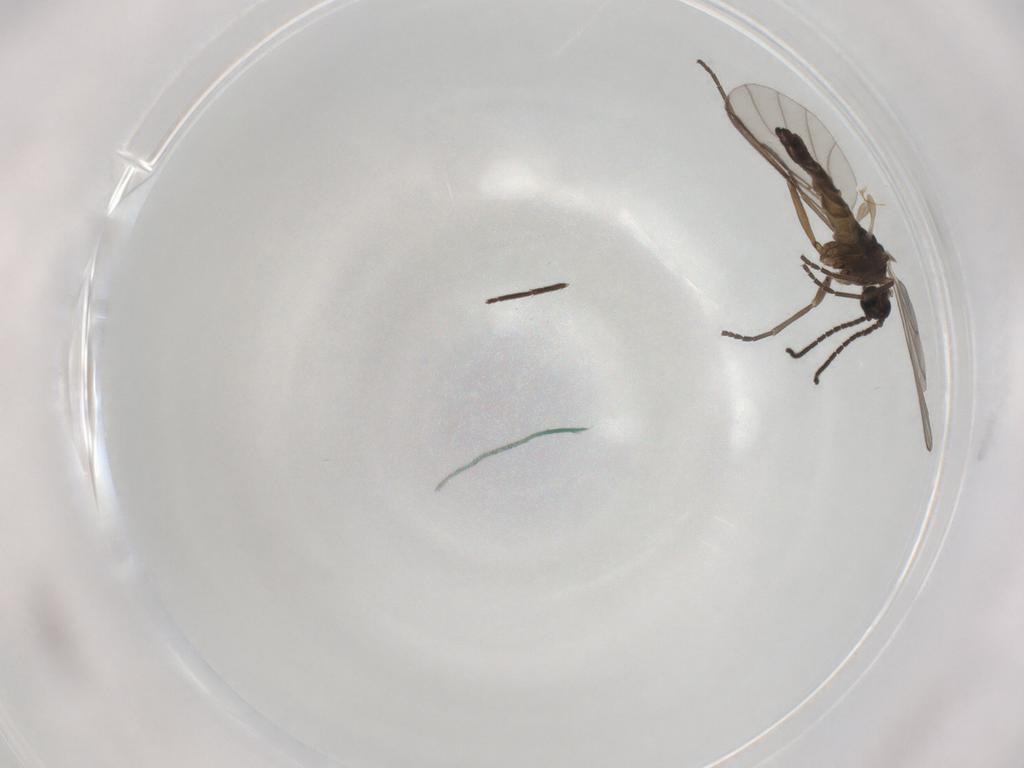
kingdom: Animalia
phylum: Arthropoda
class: Insecta
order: Diptera
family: Sciaridae
